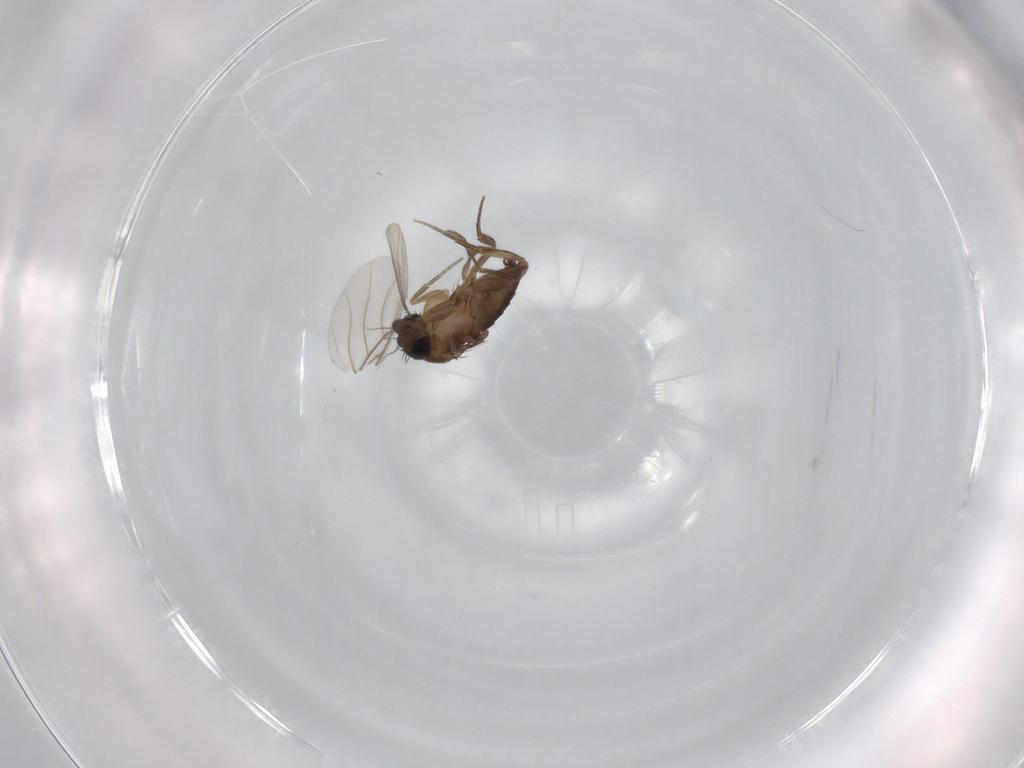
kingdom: Animalia
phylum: Arthropoda
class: Insecta
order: Diptera
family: Phoridae
